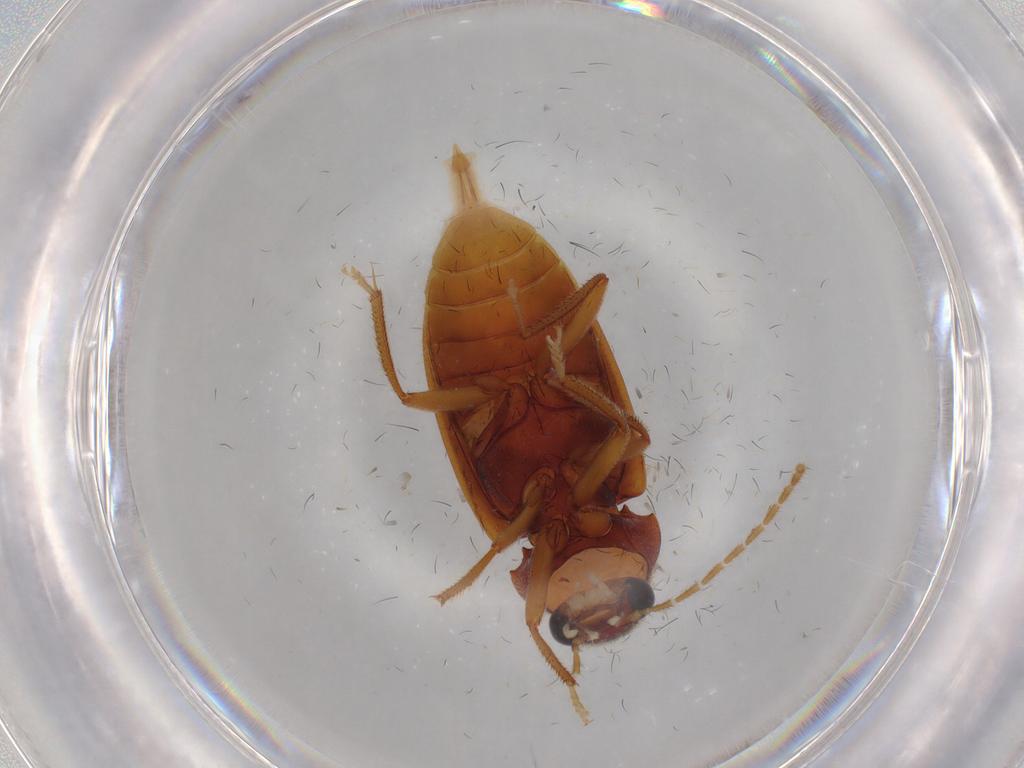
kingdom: Animalia
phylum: Arthropoda
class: Insecta
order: Coleoptera
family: Ptilodactylidae
